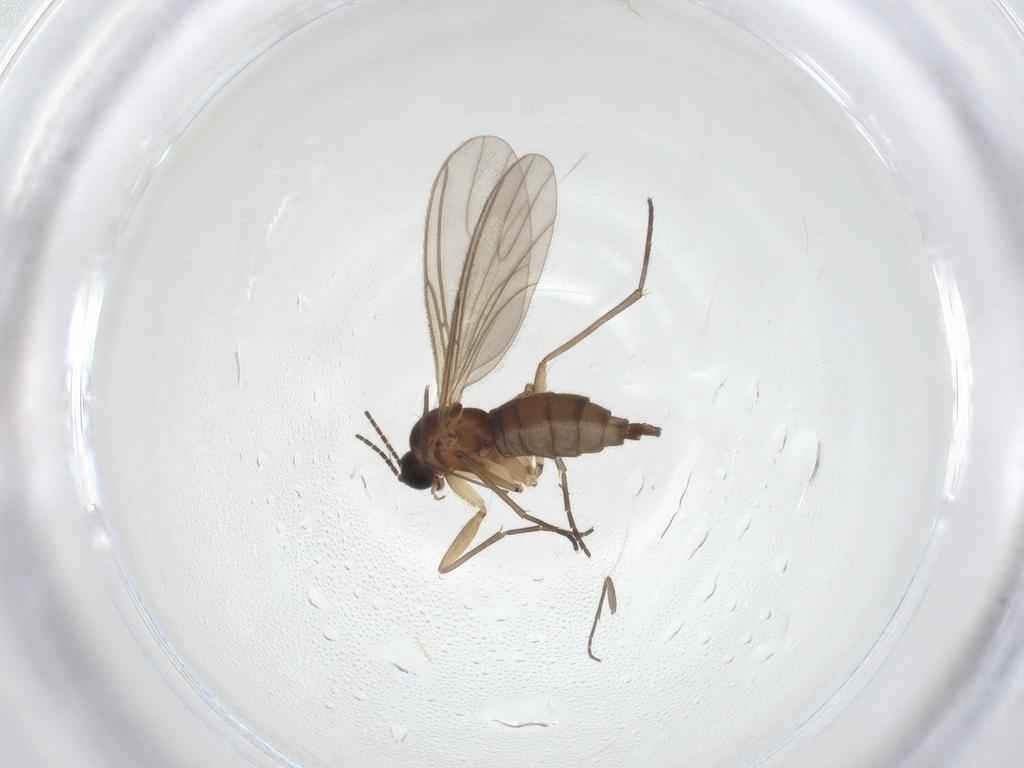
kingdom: Animalia
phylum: Arthropoda
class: Insecta
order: Diptera
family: Sciaridae
